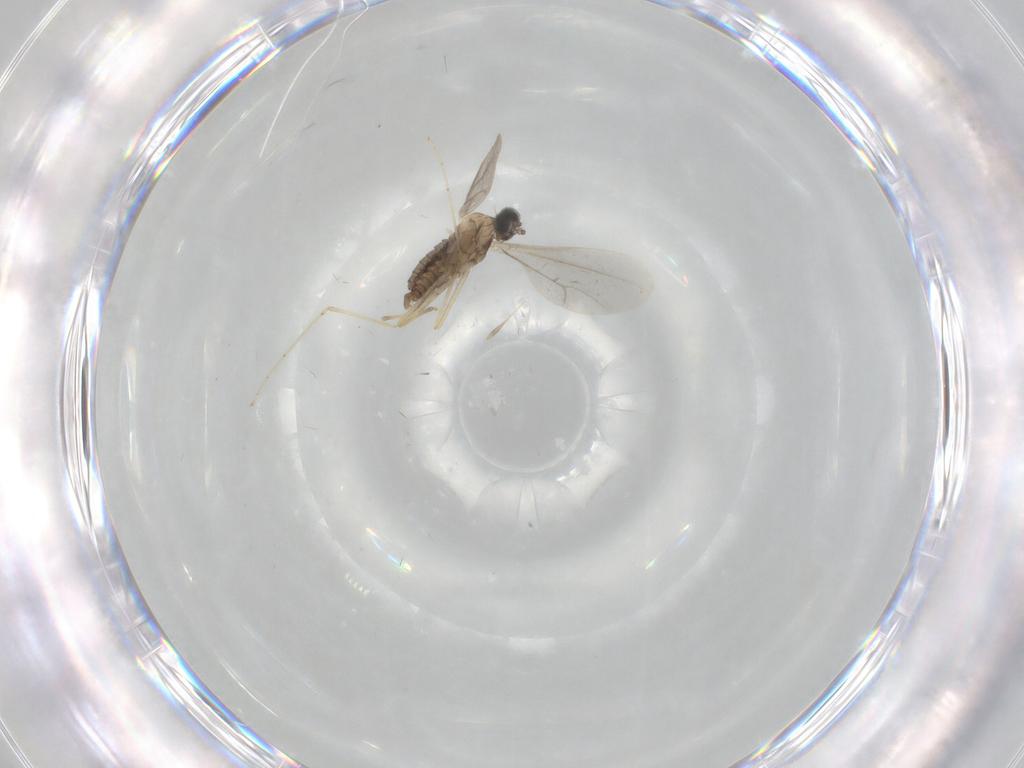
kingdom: Animalia
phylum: Arthropoda
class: Insecta
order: Diptera
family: Cecidomyiidae
